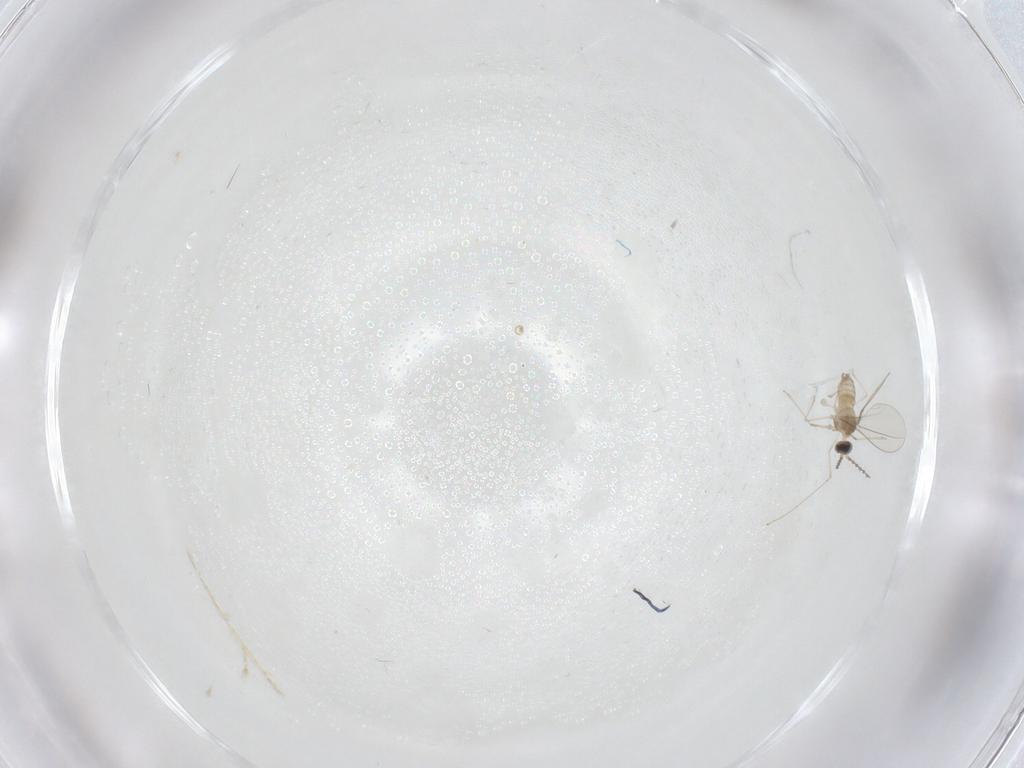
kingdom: Animalia
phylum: Arthropoda
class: Insecta
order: Diptera
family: Cecidomyiidae
